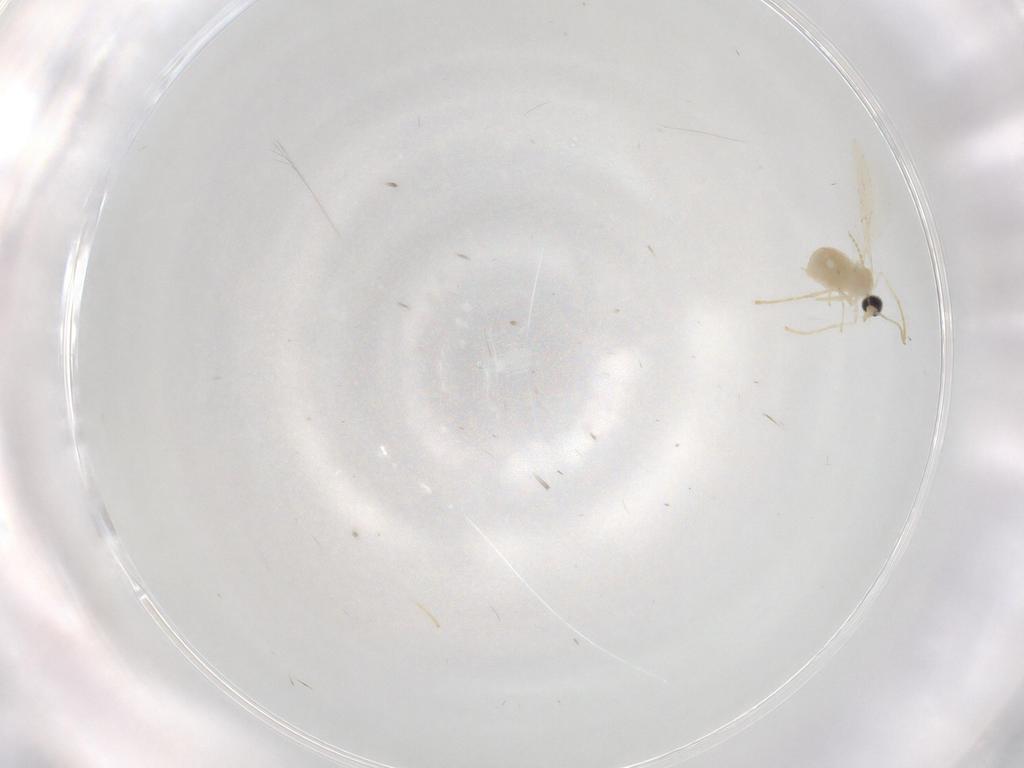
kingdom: Animalia
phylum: Arthropoda
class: Insecta
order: Diptera
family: Cecidomyiidae
